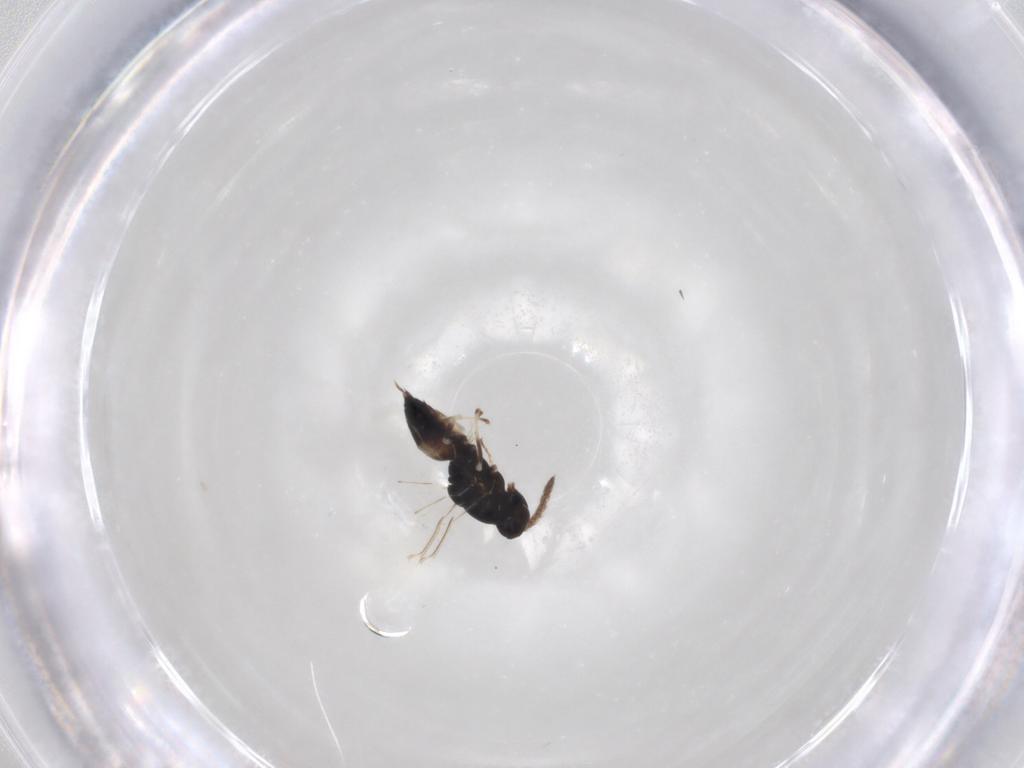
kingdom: Animalia
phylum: Arthropoda
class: Insecta
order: Hymenoptera
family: Eulophidae
